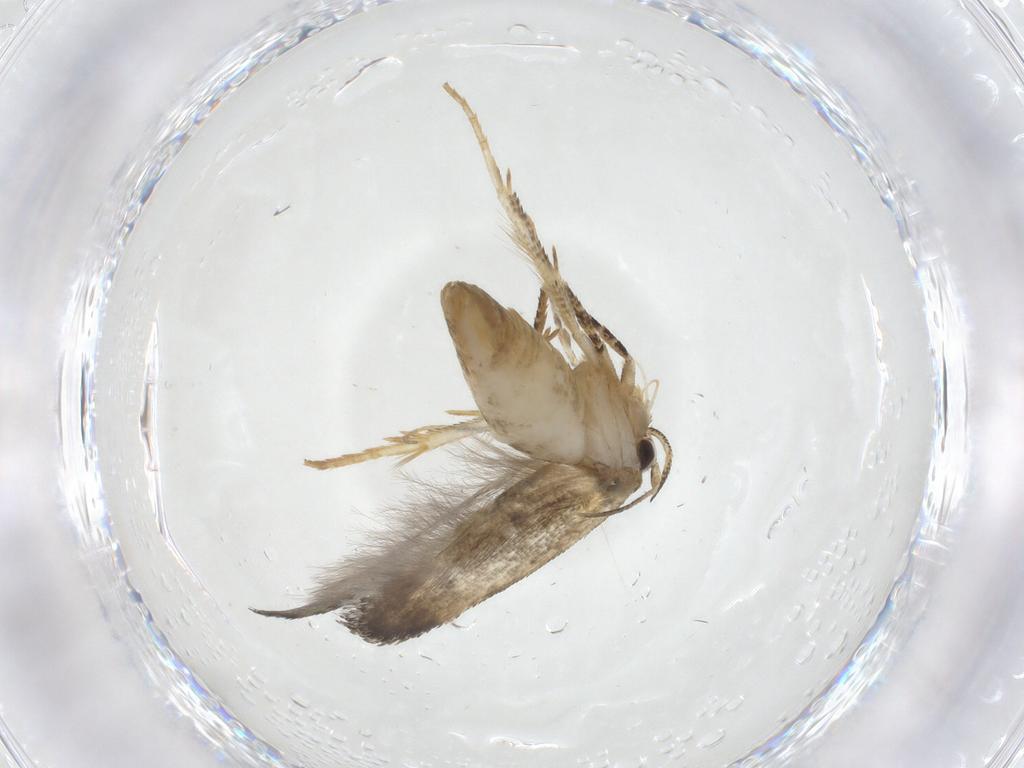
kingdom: Animalia
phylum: Arthropoda
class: Insecta
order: Lepidoptera
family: Gelechiidae
